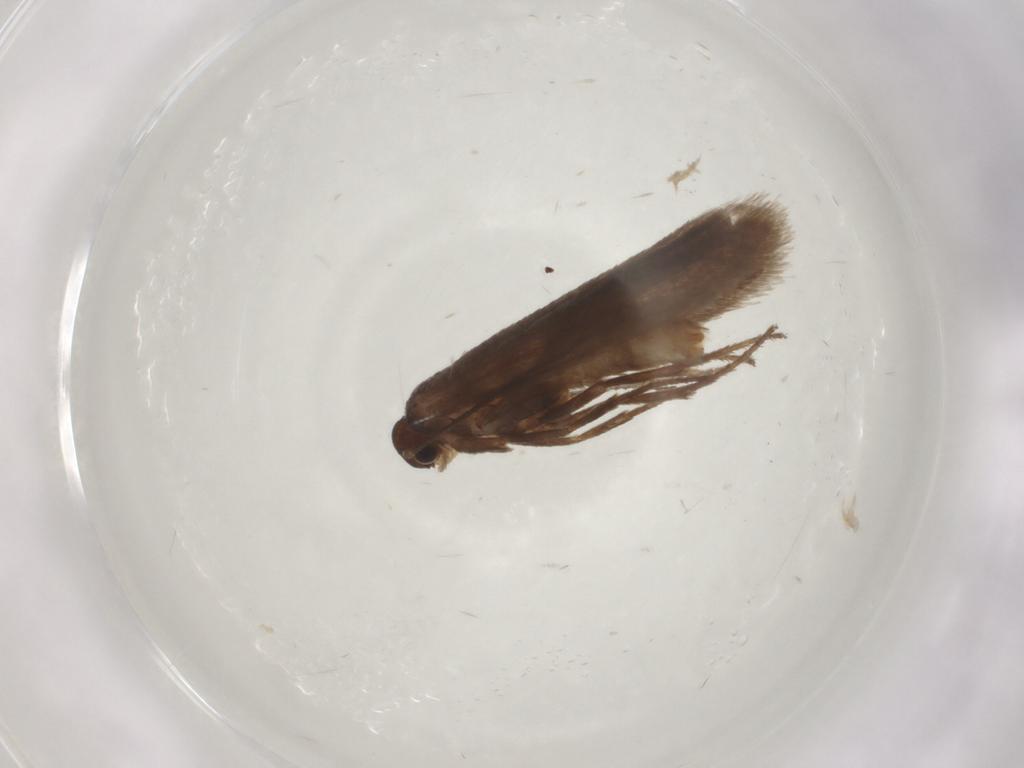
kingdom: Animalia
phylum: Arthropoda
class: Insecta
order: Lepidoptera
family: Limacodidae
